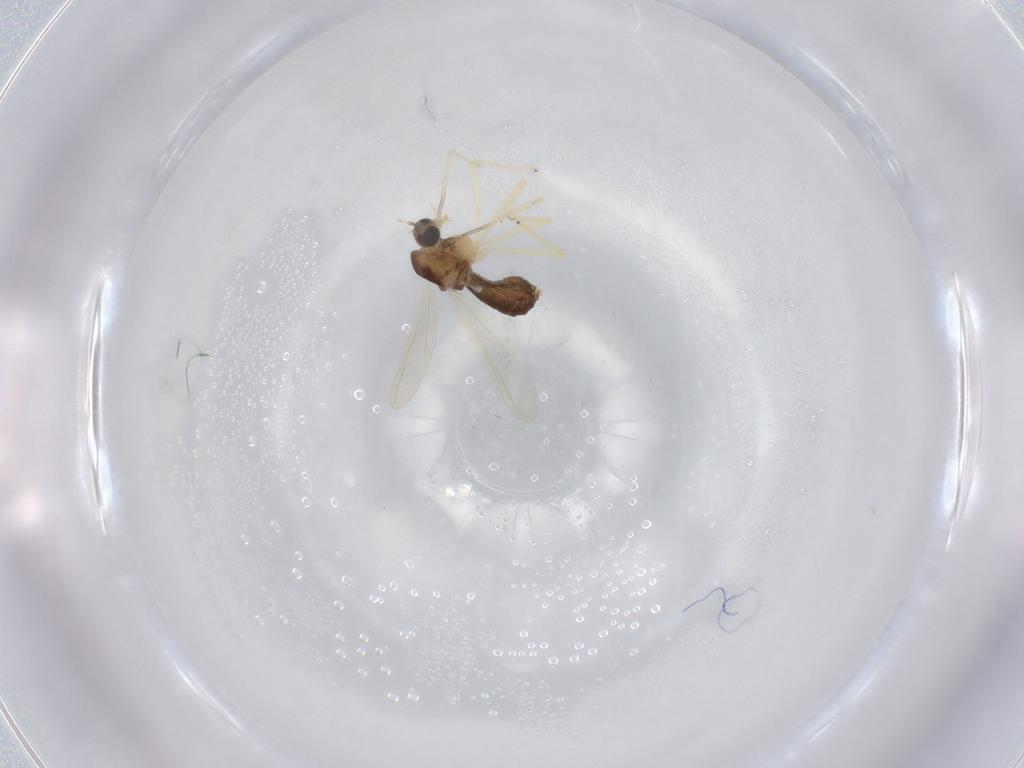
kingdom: Animalia
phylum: Arthropoda
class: Insecta
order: Diptera
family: Chironomidae
